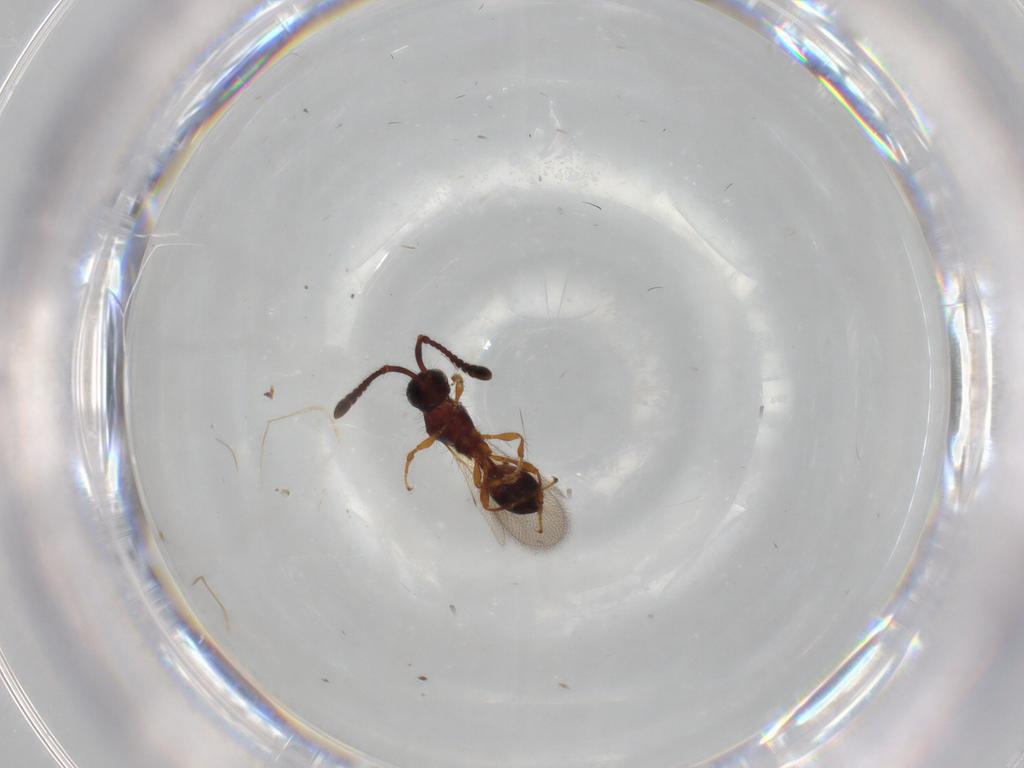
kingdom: Animalia
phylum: Arthropoda
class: Insecta
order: Hymenoptera
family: Diapriidae
